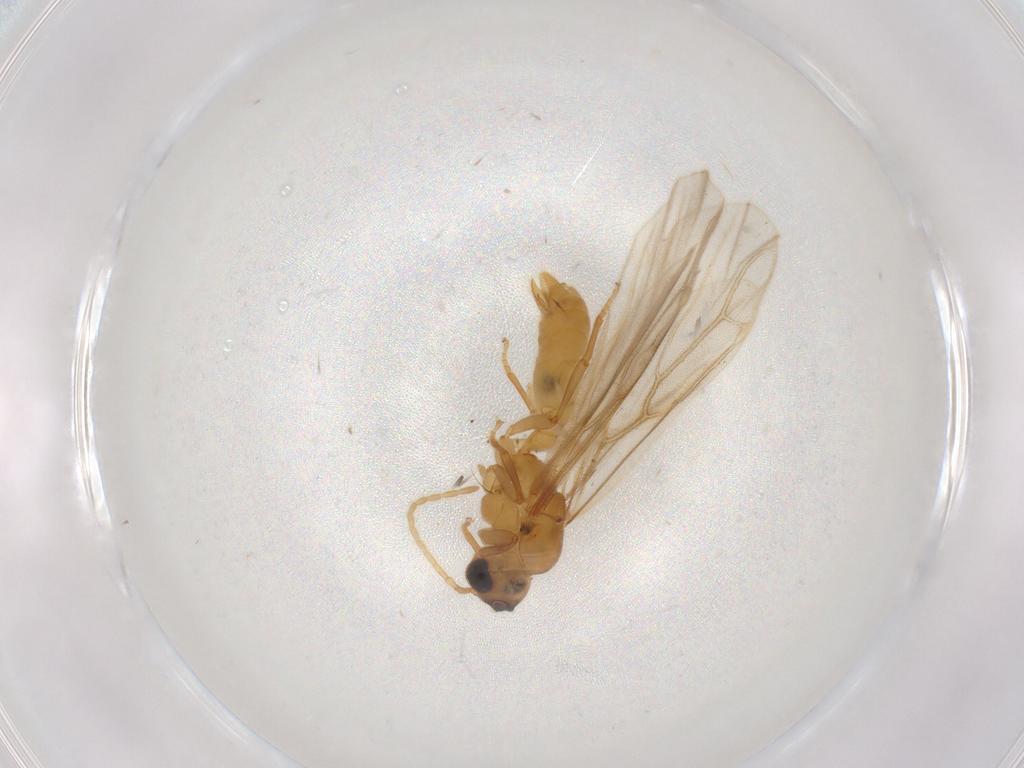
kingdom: Animalia
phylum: Arthropoda
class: Insecta
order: Hymenoptera
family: Formicidae
